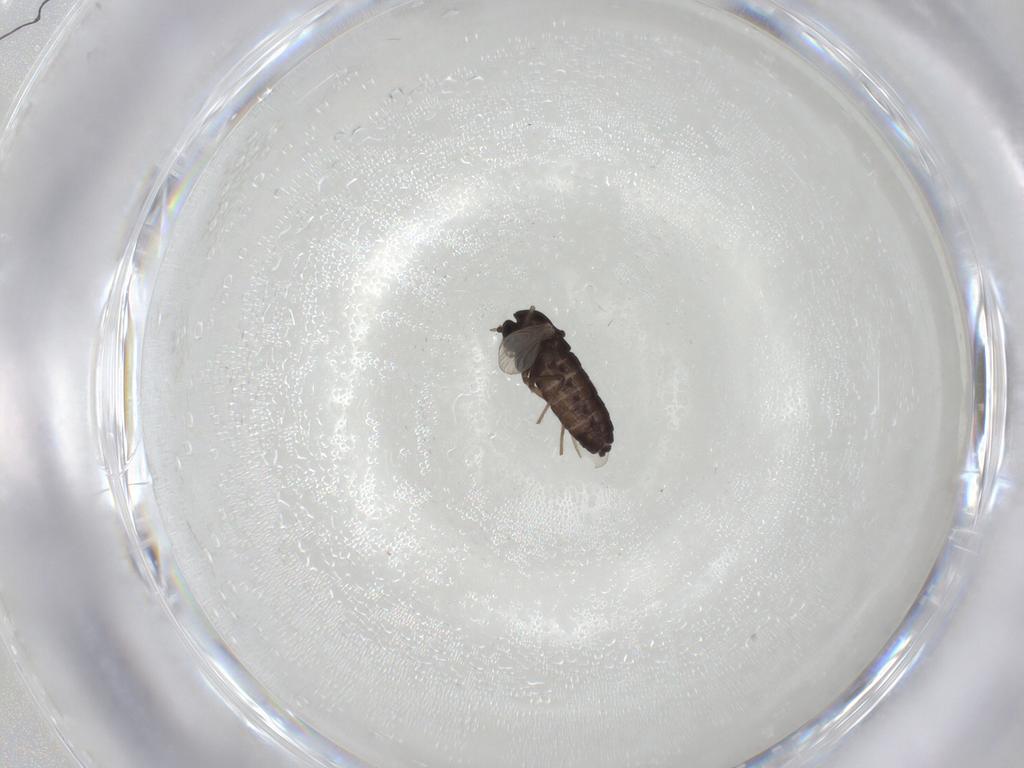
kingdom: Animalia
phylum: Arthropoda
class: Insecta
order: Diptera
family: Chironomidae
